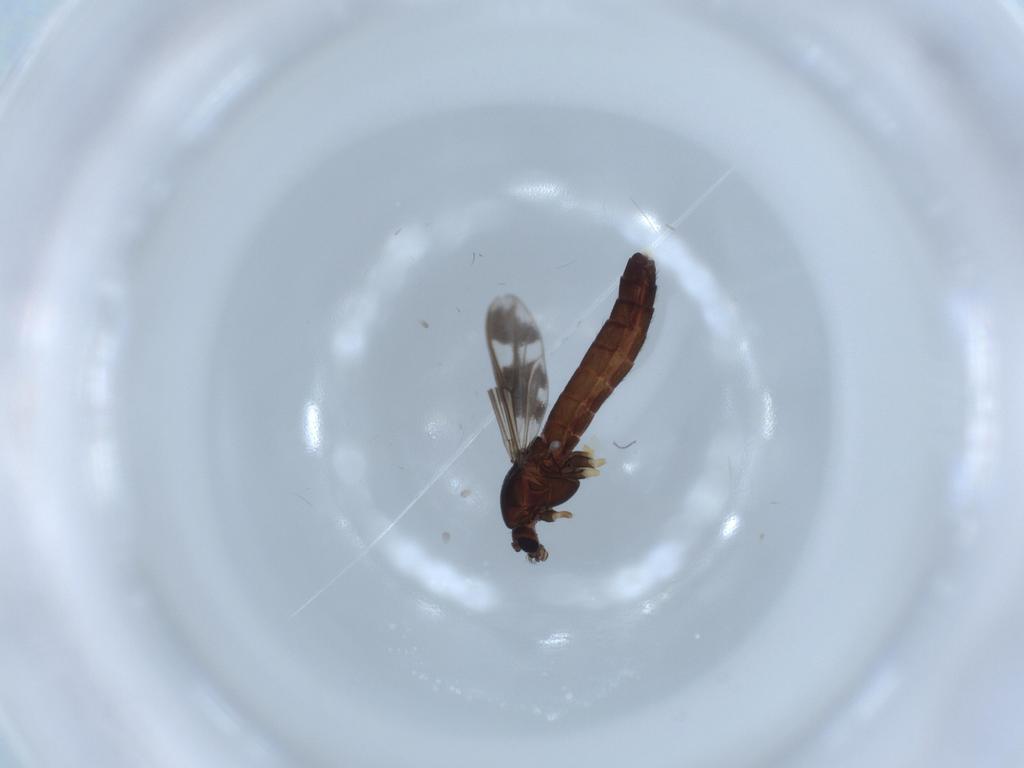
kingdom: Animalia
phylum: Arthropoda
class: Insecta
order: Diptera
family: Chironomidae
